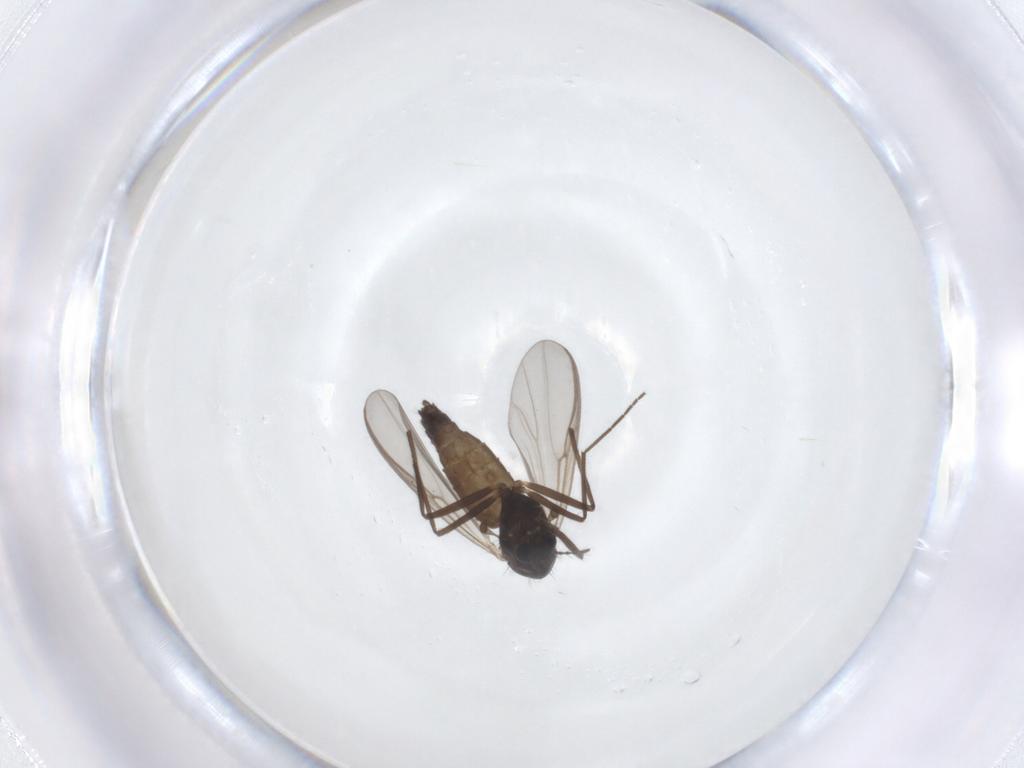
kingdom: Animalia
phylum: Arthropoda
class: Insecta
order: Diptera
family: Chironomidae
